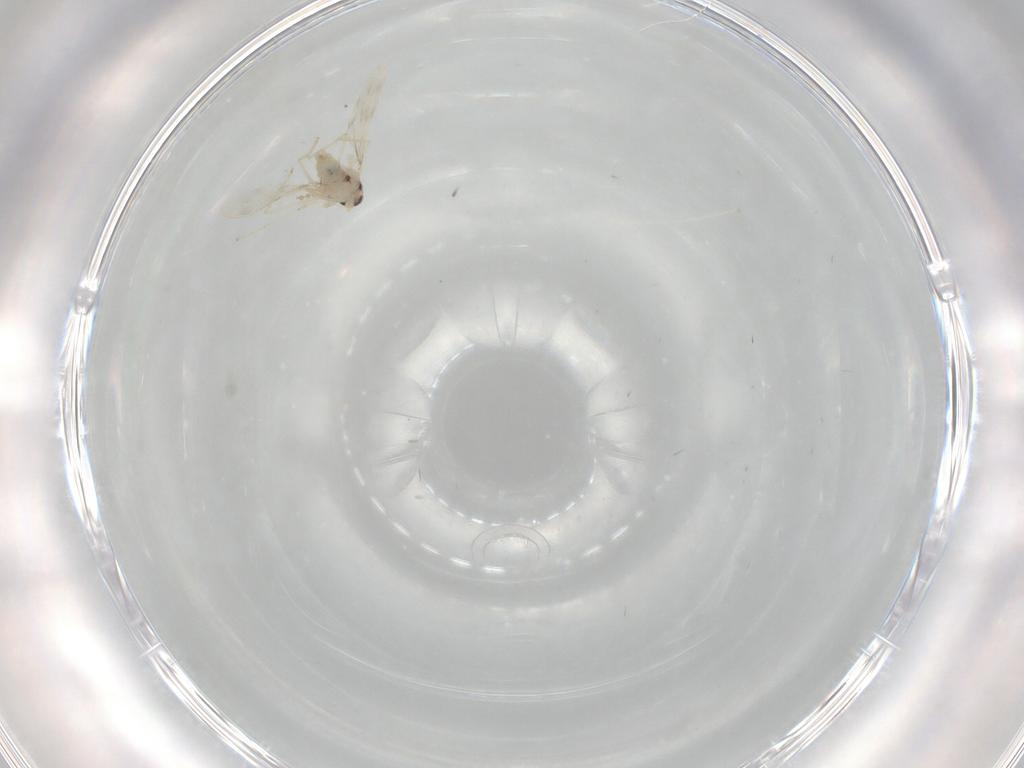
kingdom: Animalia
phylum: Arthropoda
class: Insecta
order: Diptera
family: Cecidomyiidae
